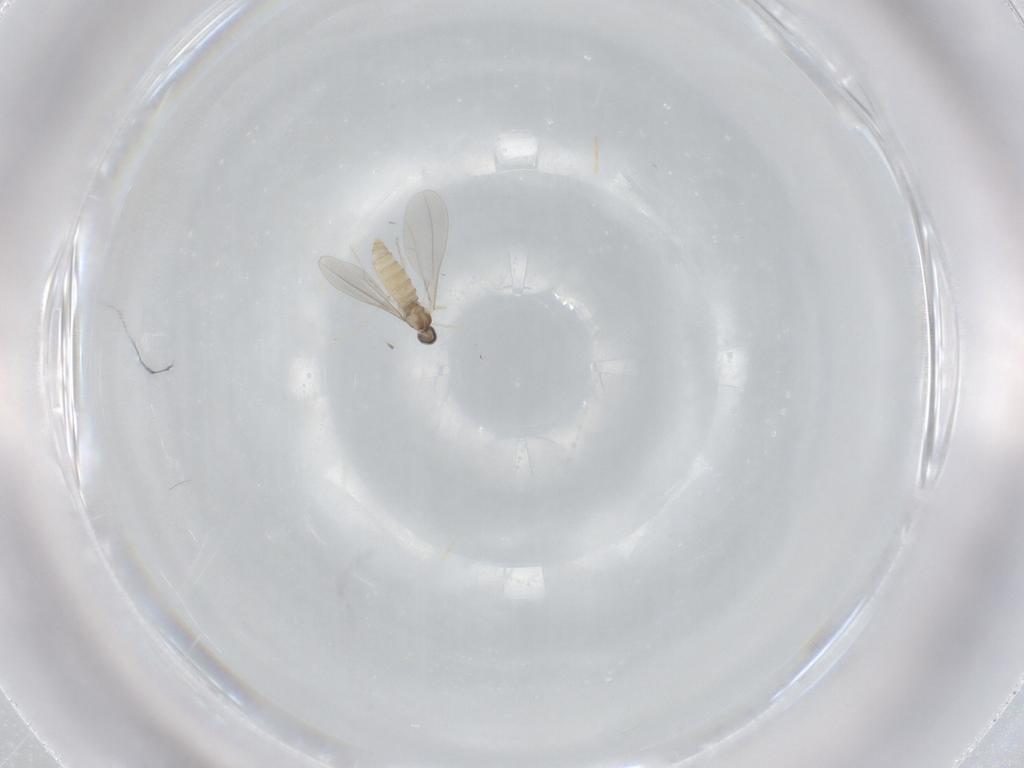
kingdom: Animalia
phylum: Arthropoda
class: Insecta
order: Diptera
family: Cecidomyiidae
